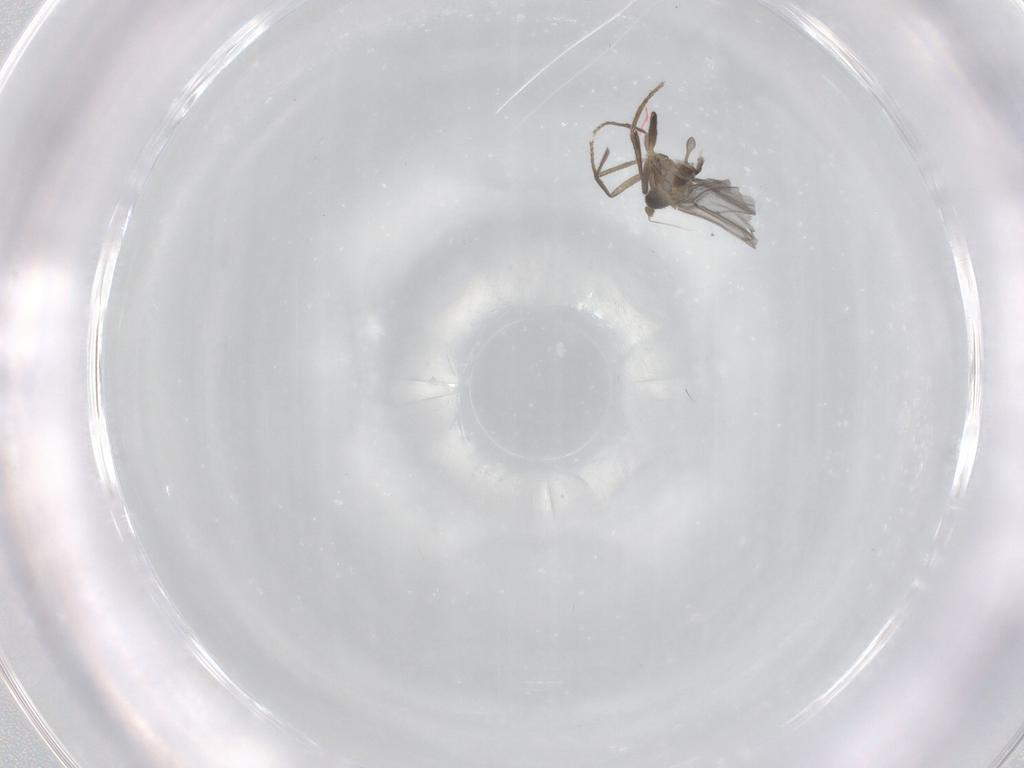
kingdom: Animalia
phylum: Arthropoda
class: Insecta
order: Diptera
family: Phoridae
